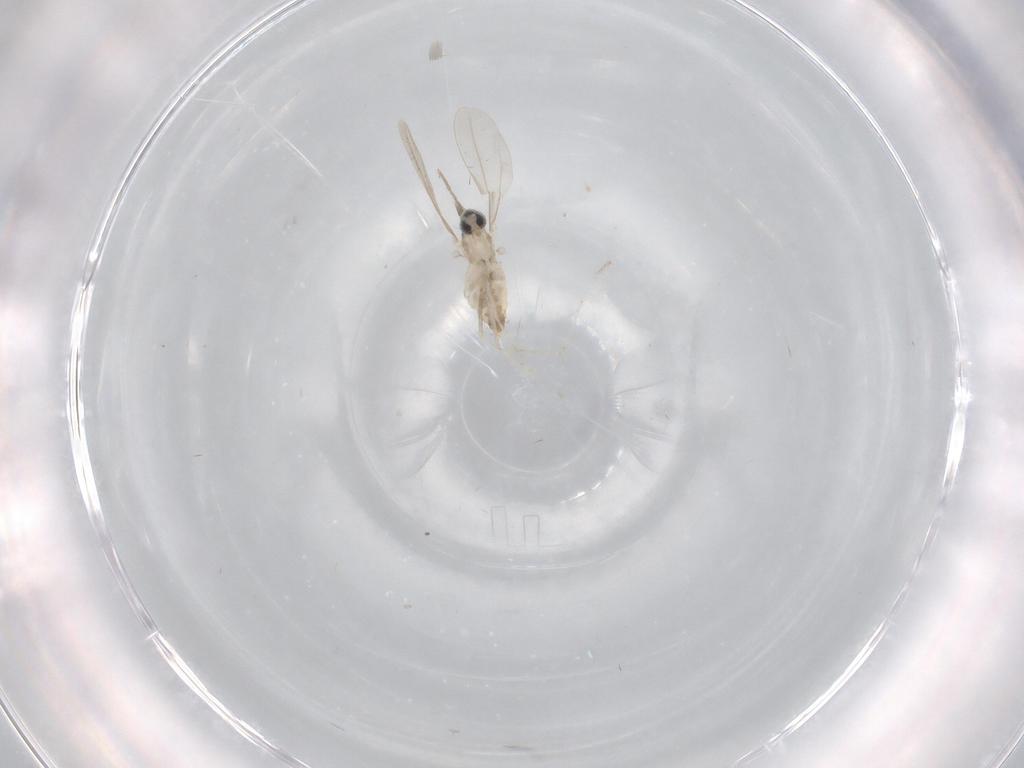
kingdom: Animalia
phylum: Arthropoda
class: Insecta
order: Diptera
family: Cecidomyiidae
